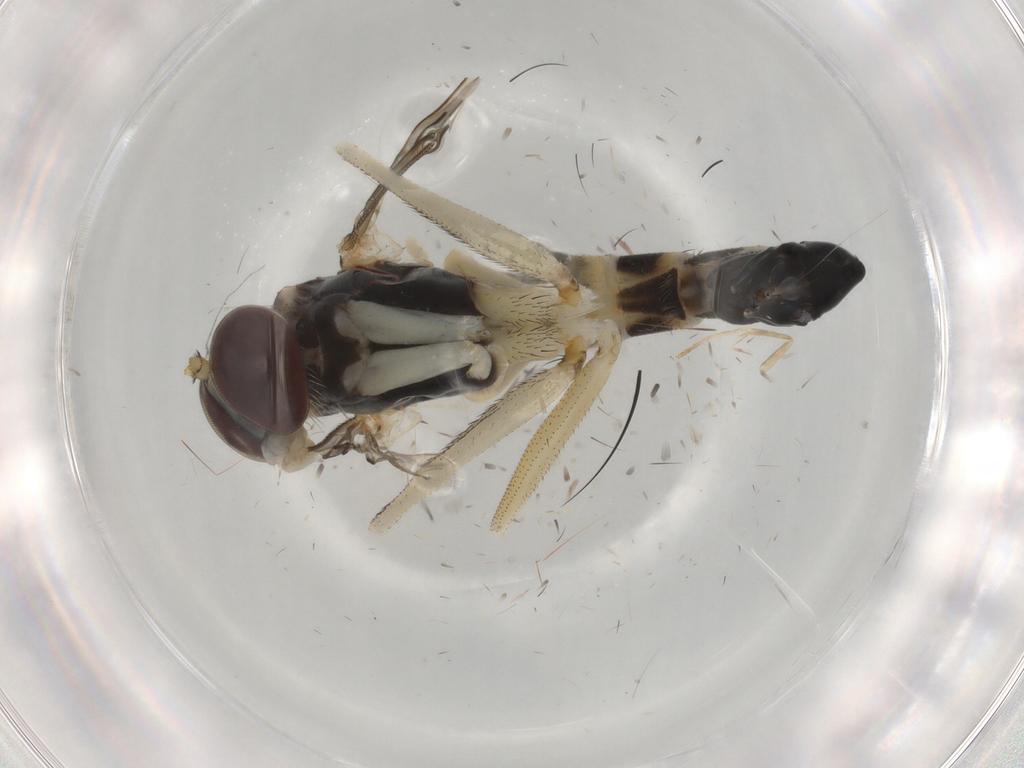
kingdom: Animalia
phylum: Arthropoda
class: Insecta
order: Diptera
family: Dolichopodidae
